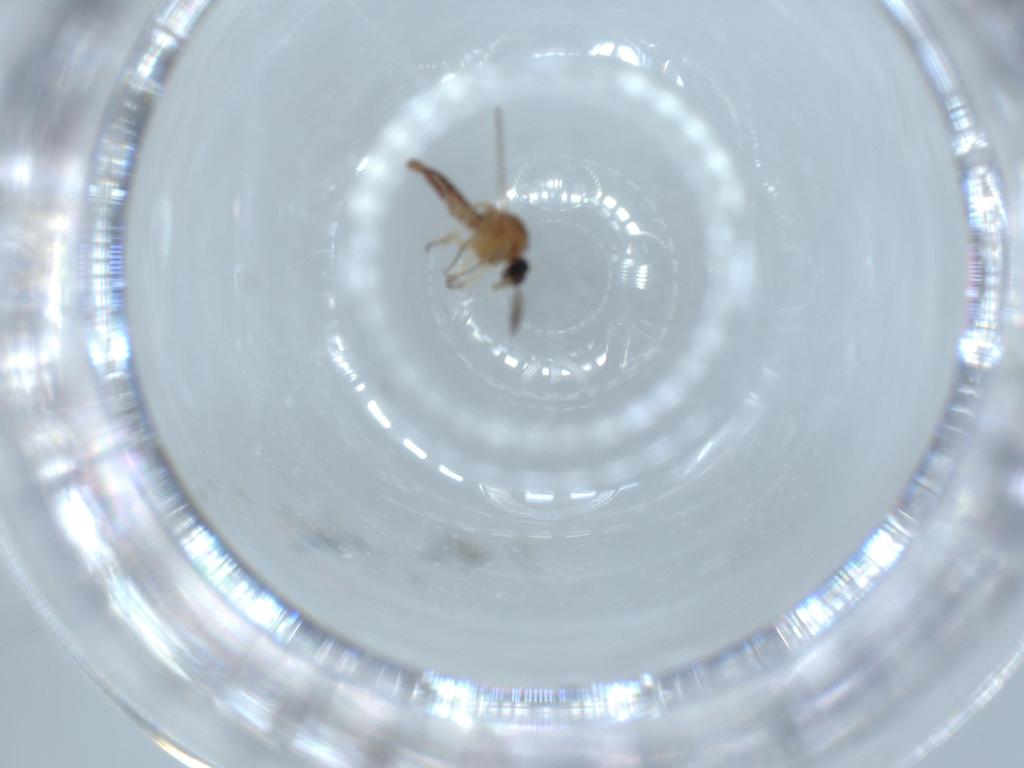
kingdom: Animalia
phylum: Arthropoda
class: Insecta
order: Diptera
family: Ceratopogonidae
